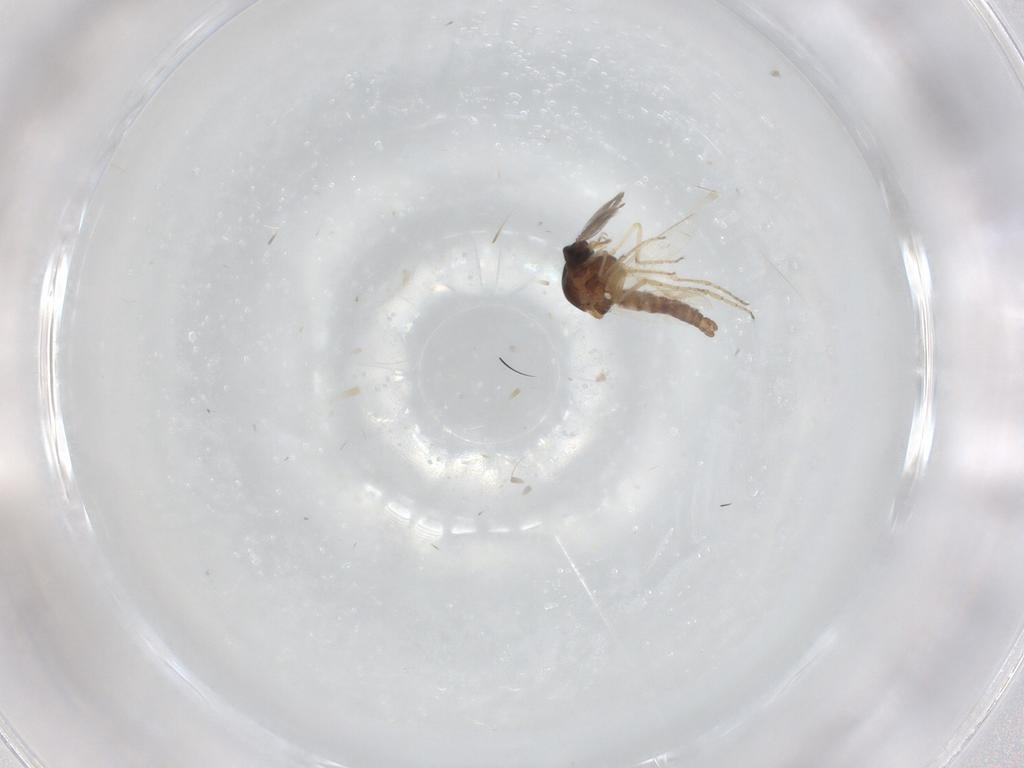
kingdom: Animalia
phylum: Arthropoda
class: Insecta
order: Diptera
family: Ceratopogonidae
